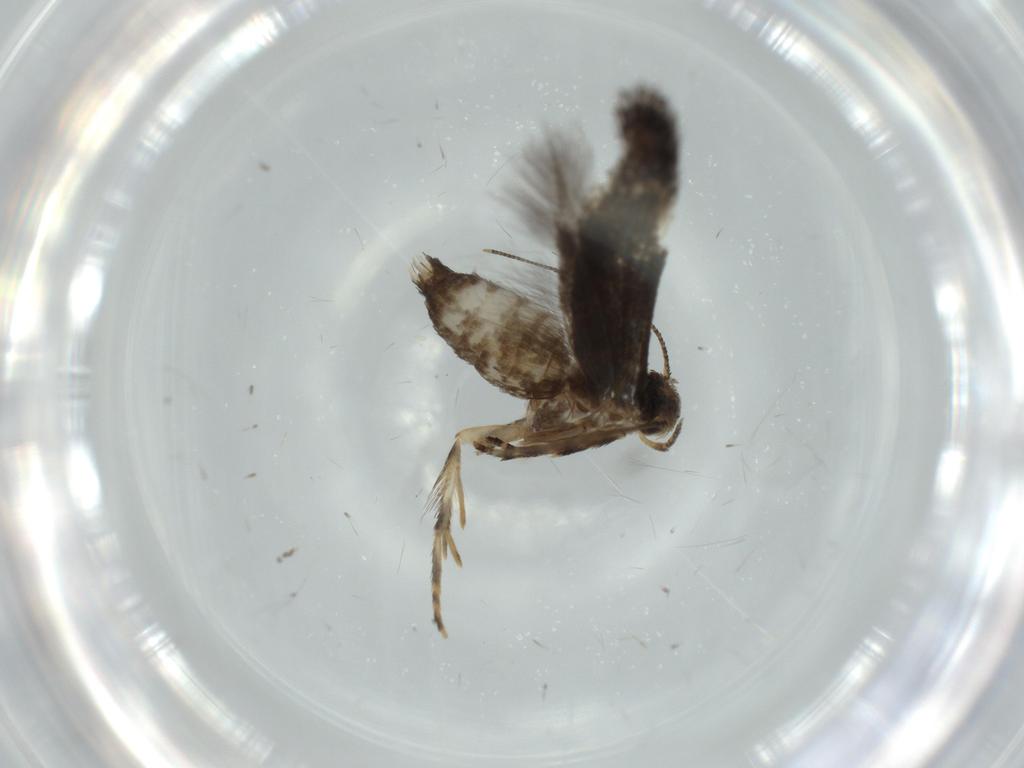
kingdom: Animalia
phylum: Arthropoda
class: Insecta
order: Lepidoptera
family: Gelechiidae
